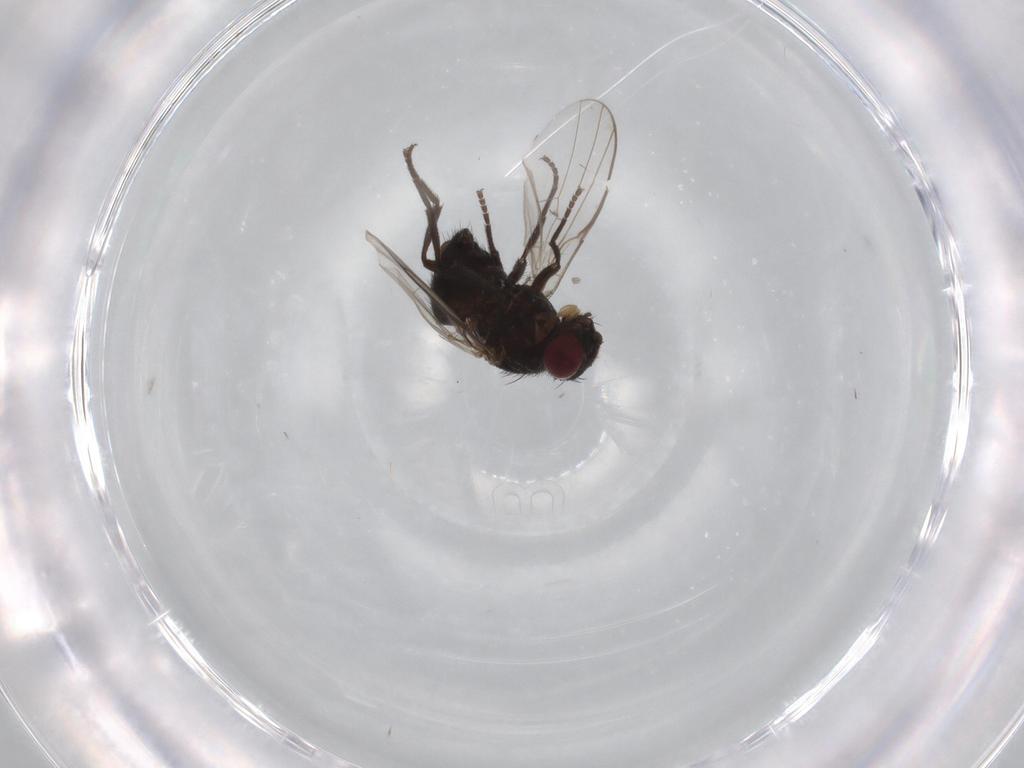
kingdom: Animalia
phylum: Arthropoda
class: Insecta
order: Diptera
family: Agromyzidae
